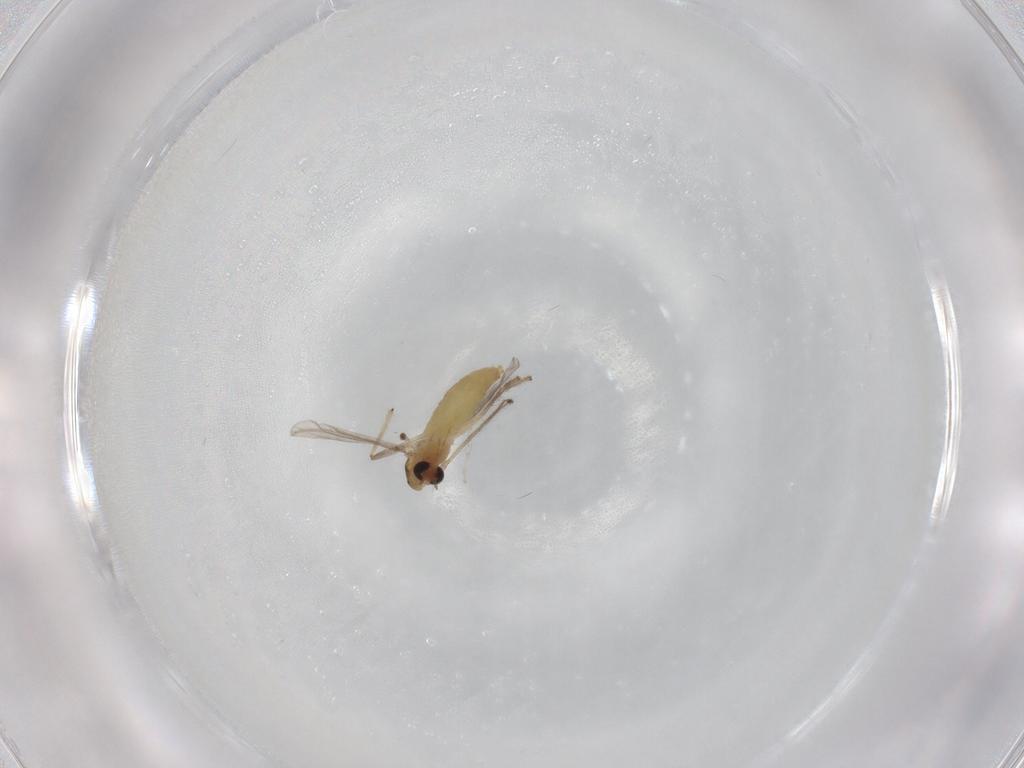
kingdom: Animalia
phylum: Arthropoda
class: Insecta
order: Diptera
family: Chironomidae
